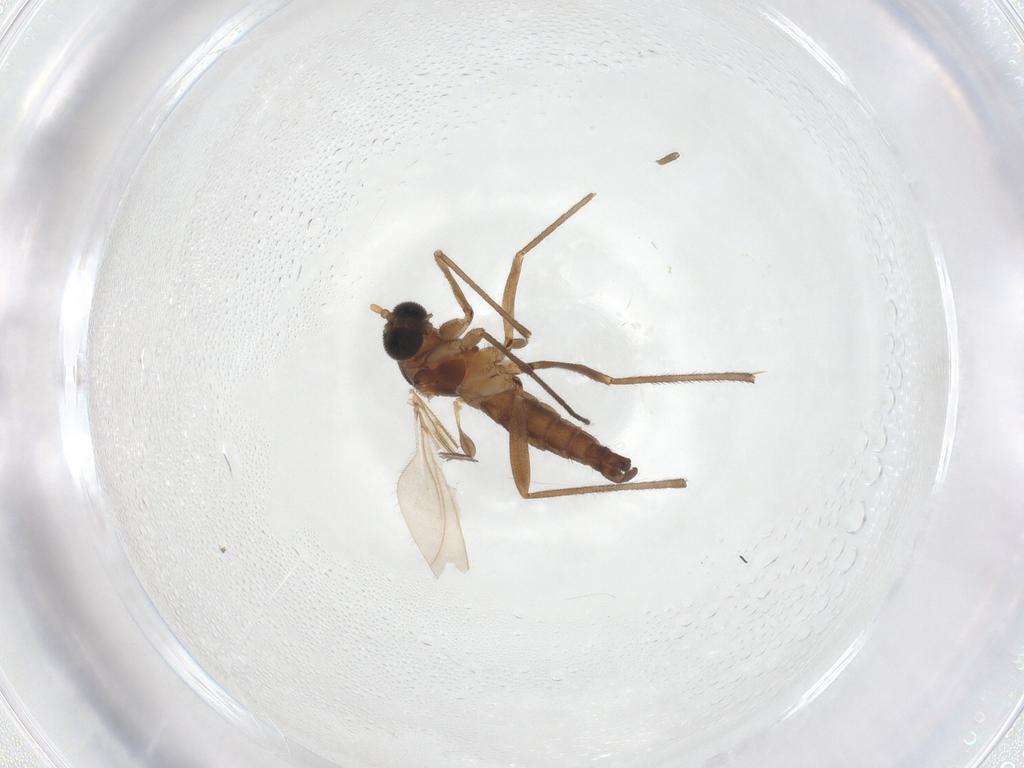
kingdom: Animalia
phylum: Arthropoda
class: Insecta
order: Diptera
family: Sciaridae
